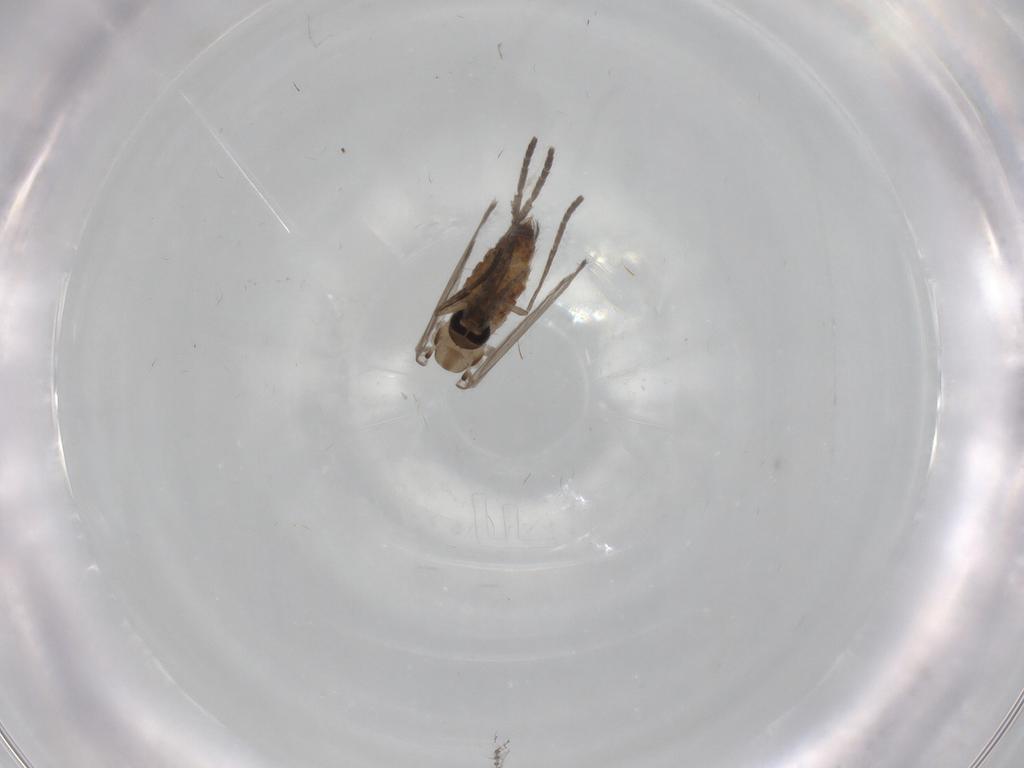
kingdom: Animalia
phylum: Arthropoda
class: Insecta
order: Diptera
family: Psychodidae
